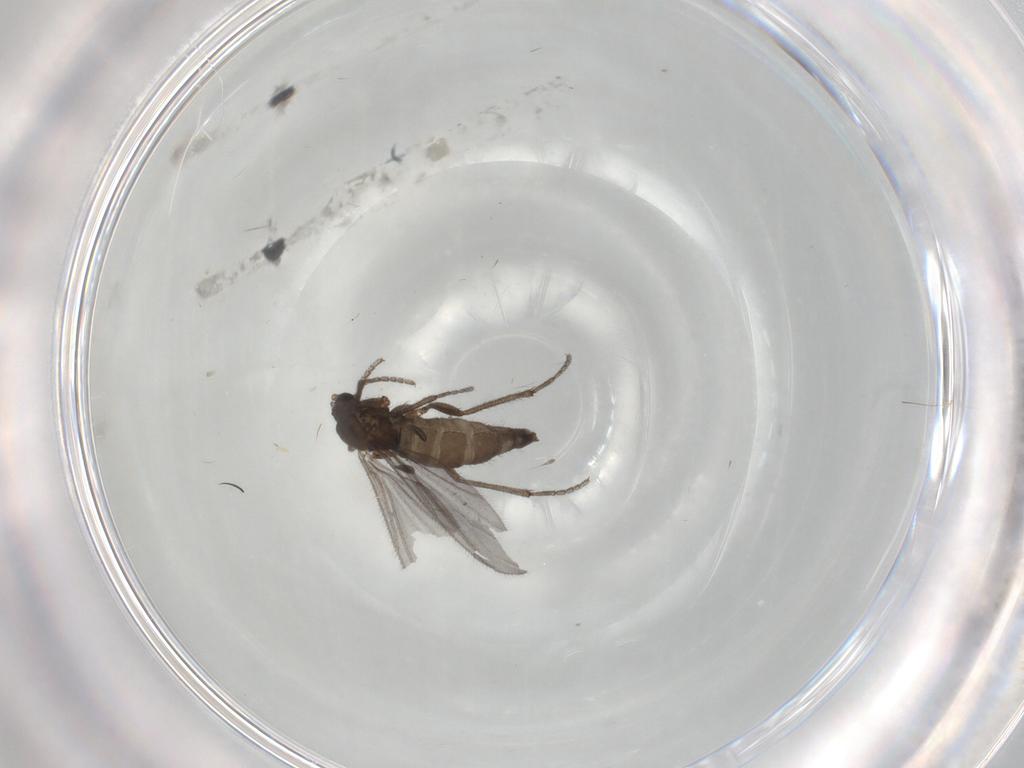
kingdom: Animalia
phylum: Arthropoda
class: Insecta
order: Diptera
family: Sciaridae
